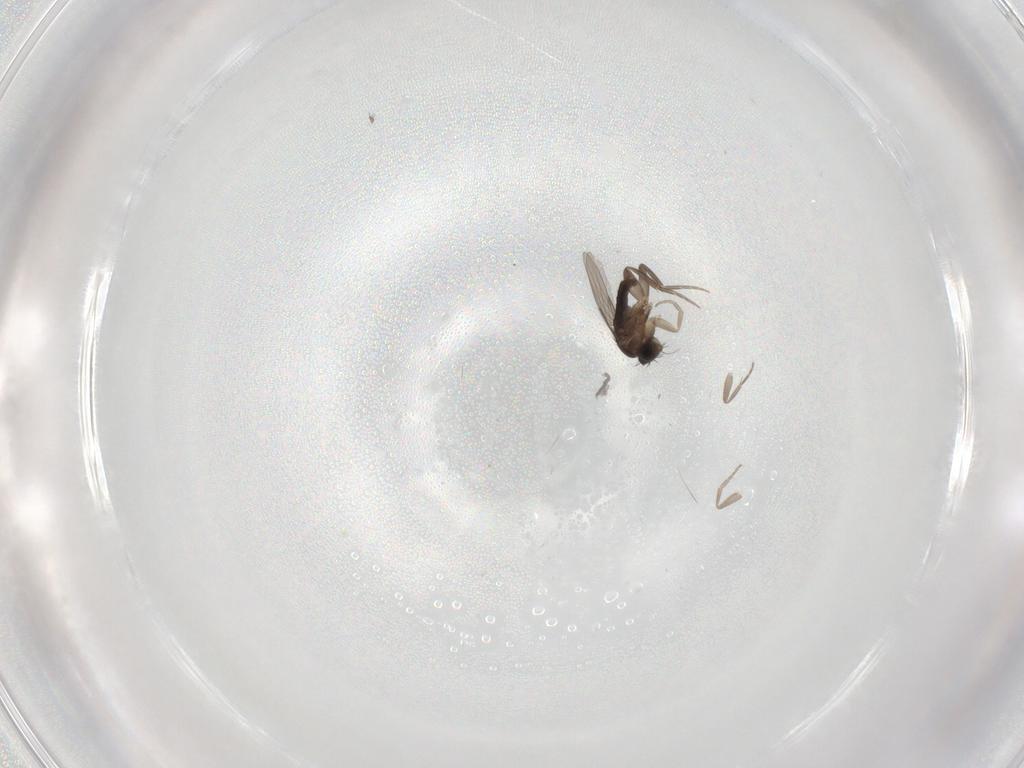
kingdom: Animalia
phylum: Arthropoda
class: Insecta
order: Diptera
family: Phoridae
